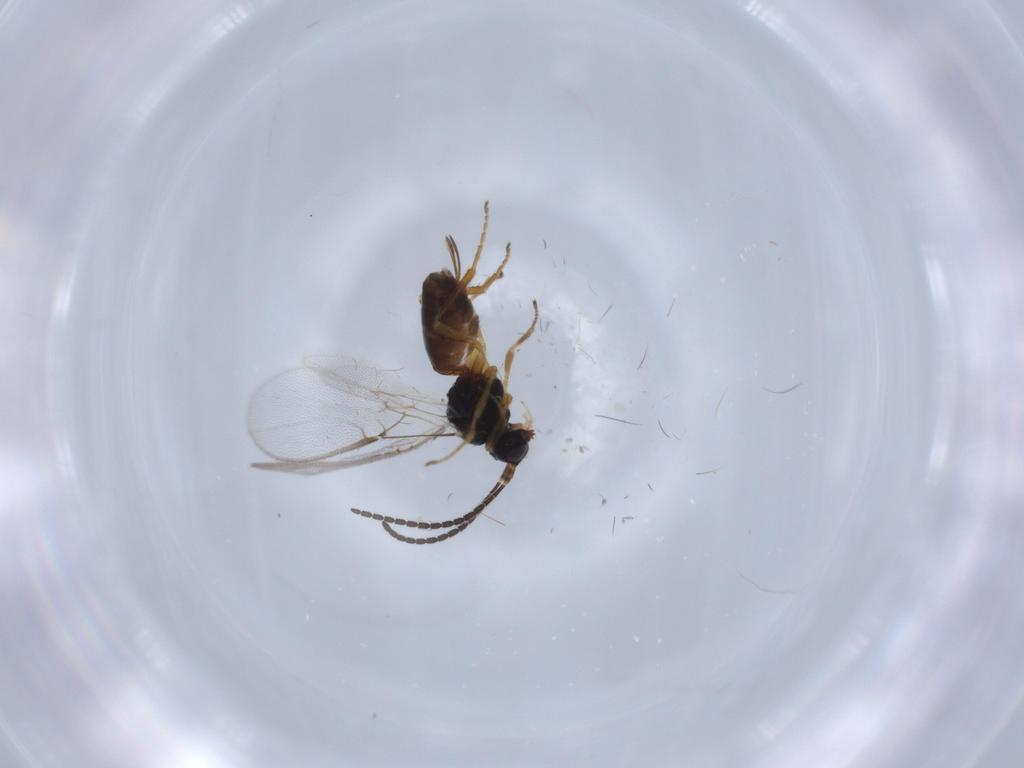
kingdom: Animalia
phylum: Arthropoda
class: Insecta
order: Hymenoptera
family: Braconidae
